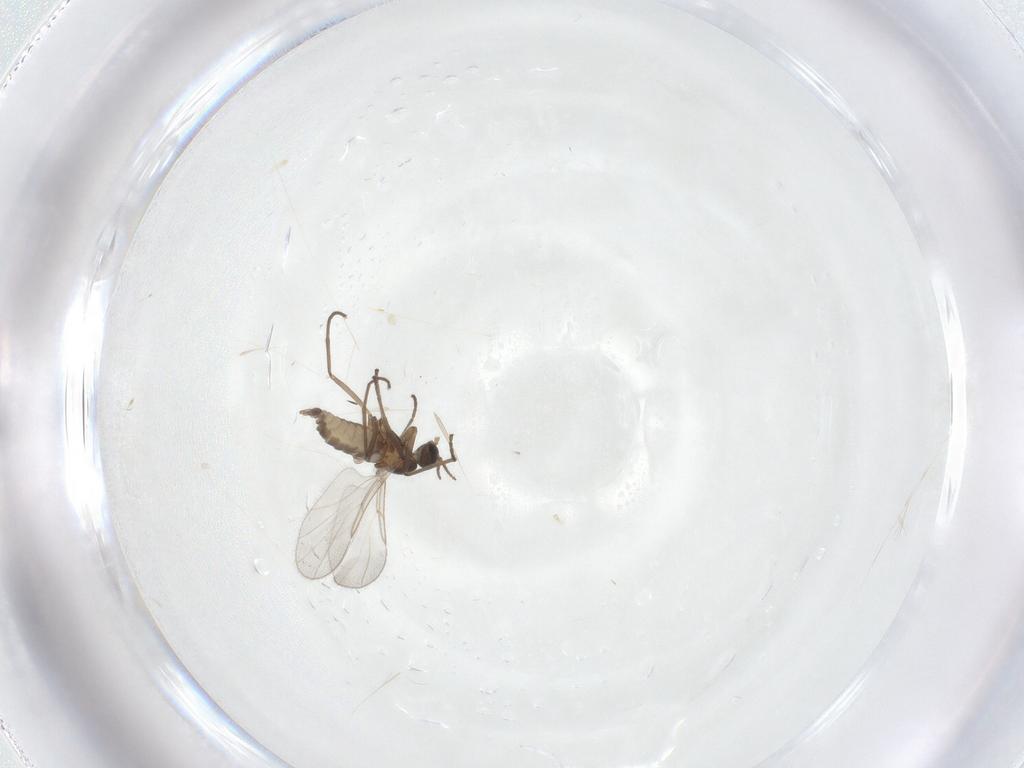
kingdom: Animalia
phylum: Arthropoda
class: Insecta
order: Diptera
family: Cecidomyiidae
